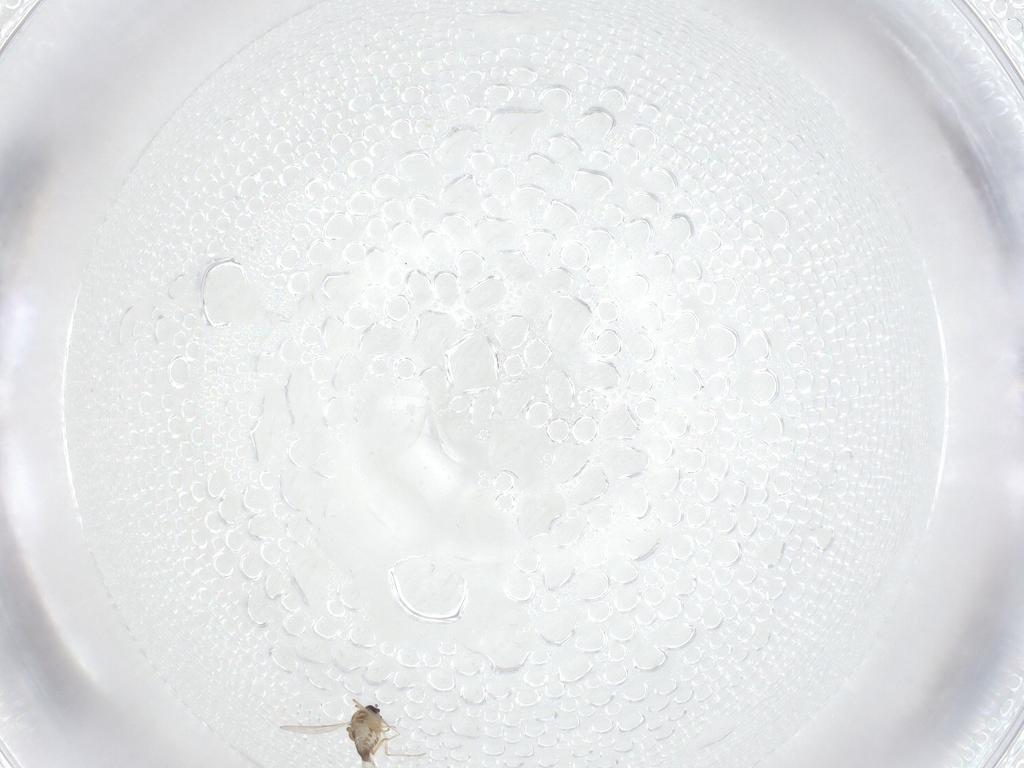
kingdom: Animalia
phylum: Arthropoda
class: Insecta
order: Diptera
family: Cecidomyiidae
